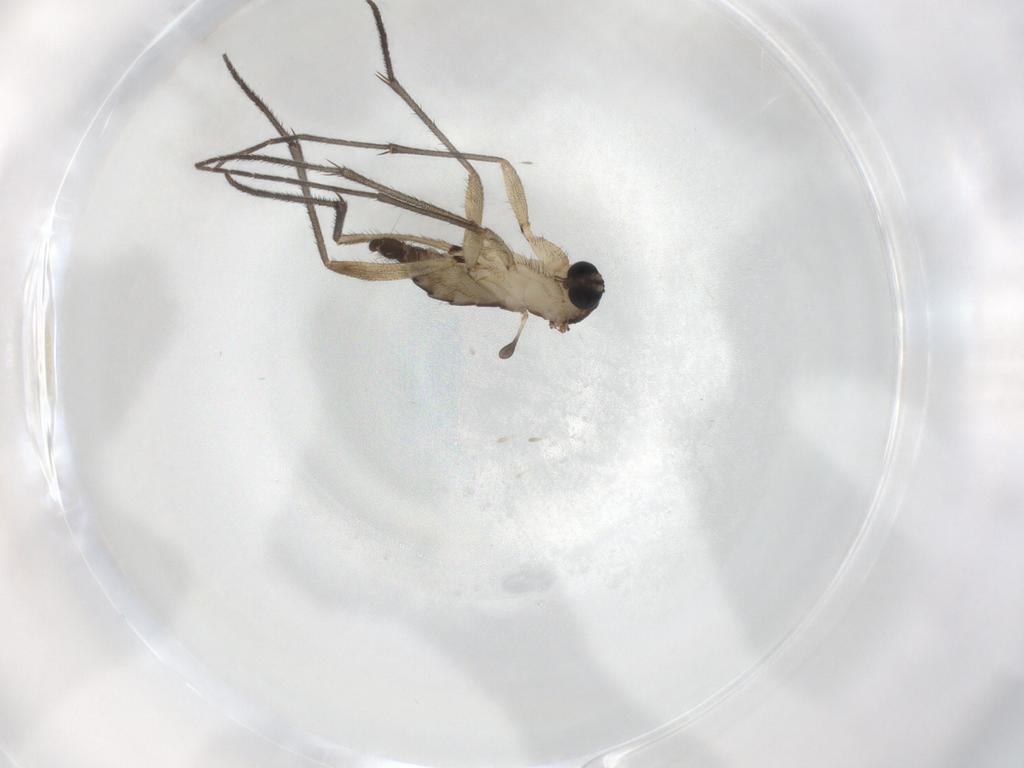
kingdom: Animalia
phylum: Arthropoda
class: Insecta
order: Diptera
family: Sciaridae
